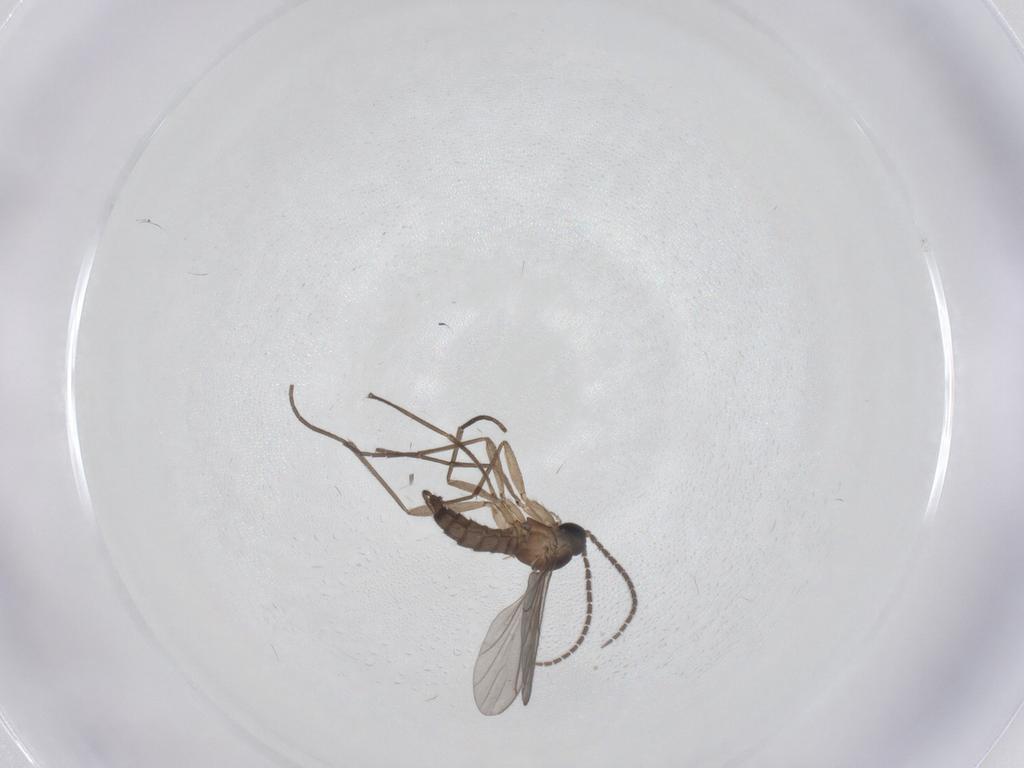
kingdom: Animalia
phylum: Arthropoda
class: Insecta
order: Diptera
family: Sciaridae
